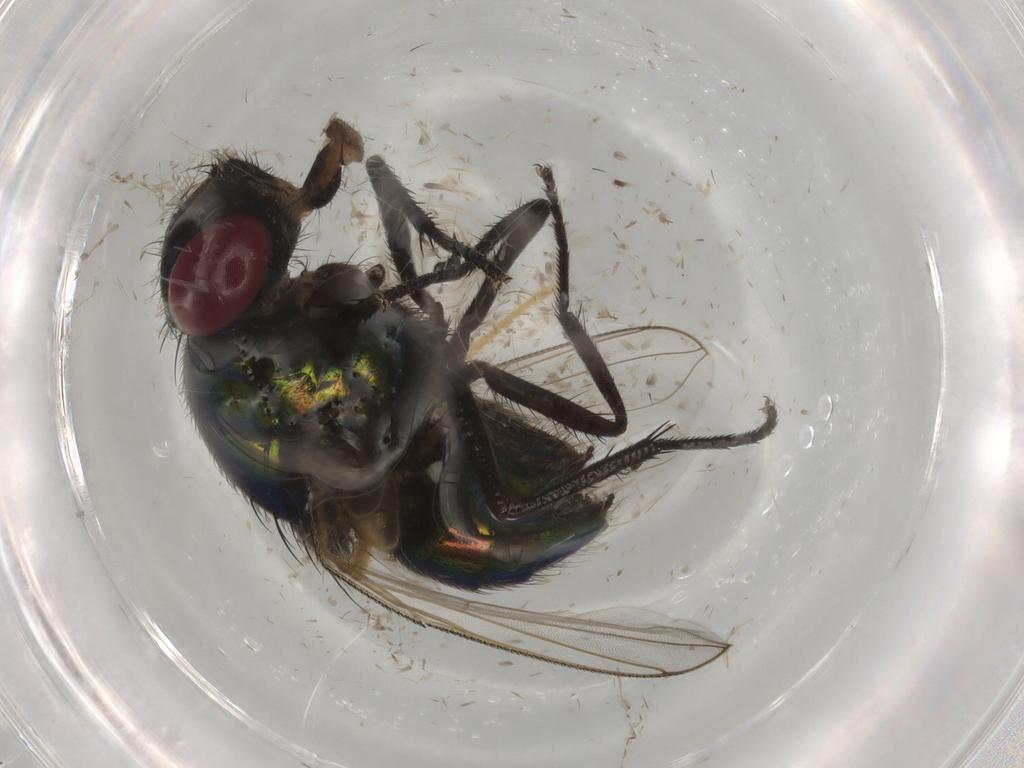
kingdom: Animalia
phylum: Arthropoda
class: Insecta
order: Diptera
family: Muscidae
